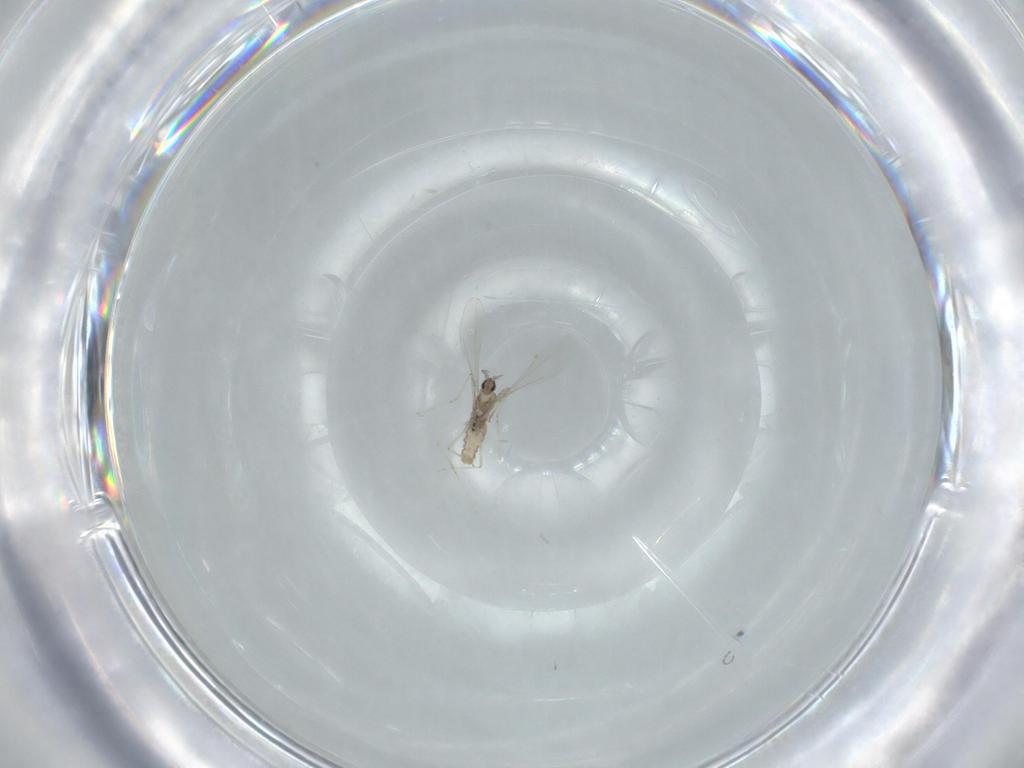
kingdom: Animalia
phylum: Arthropoda
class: Insecta
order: Diptera
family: Cecidomyiidae
